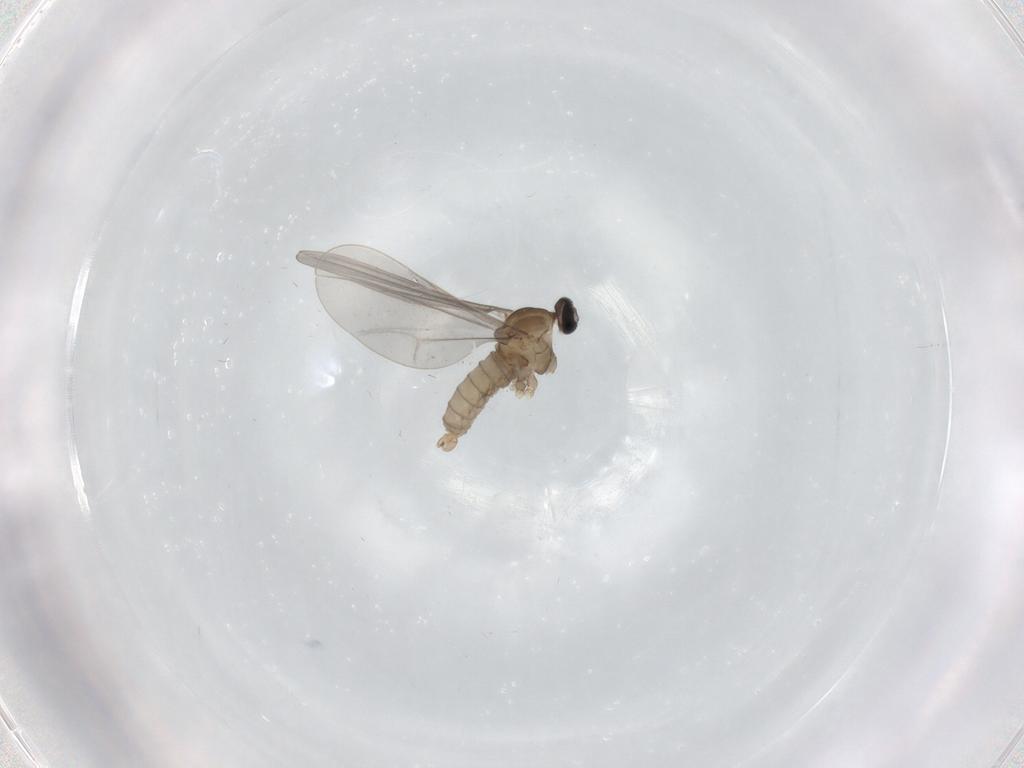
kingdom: Animalia
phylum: Arthropoda
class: Insecta
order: Diptera
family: Cecidomyiidae
